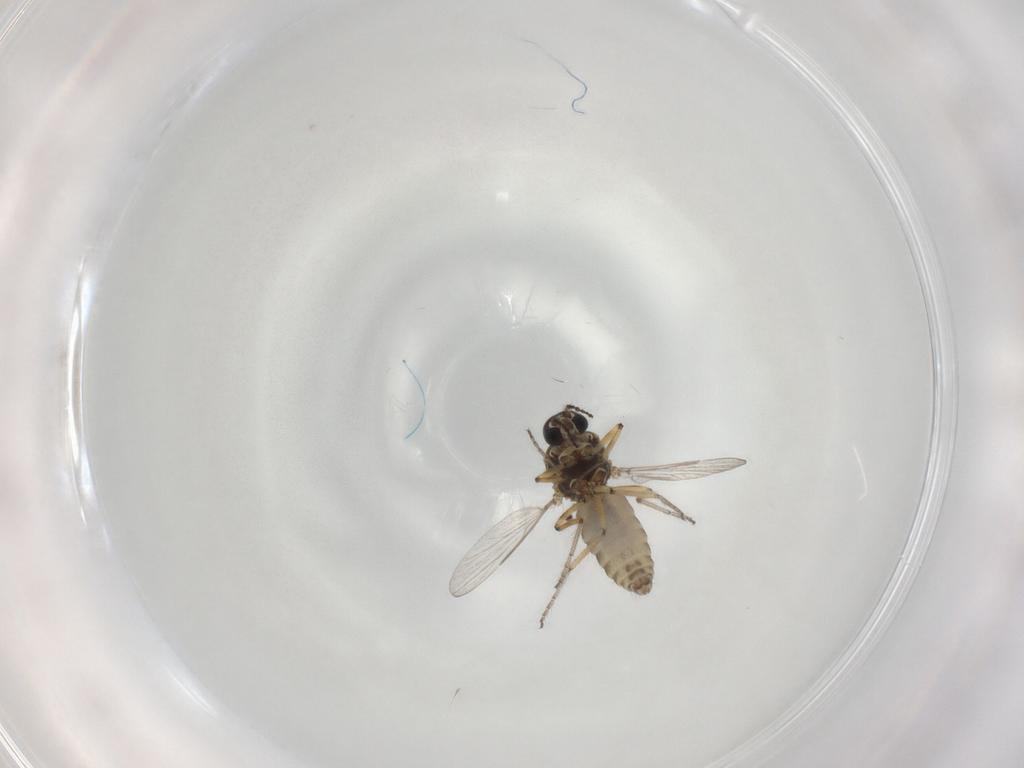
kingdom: Animalia
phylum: Arthropoda
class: Insecta
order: Diptera
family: Ceratopogonidae
